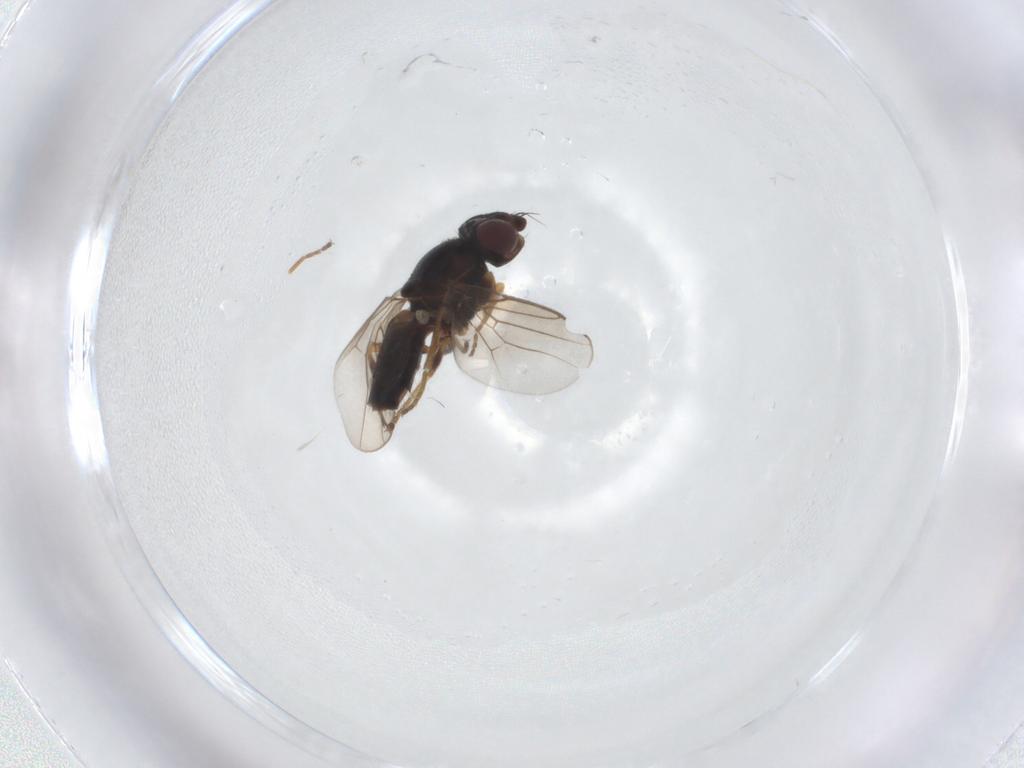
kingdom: Animalia
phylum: Arthropoda
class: Insecta
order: Diptera
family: Chloropidae
